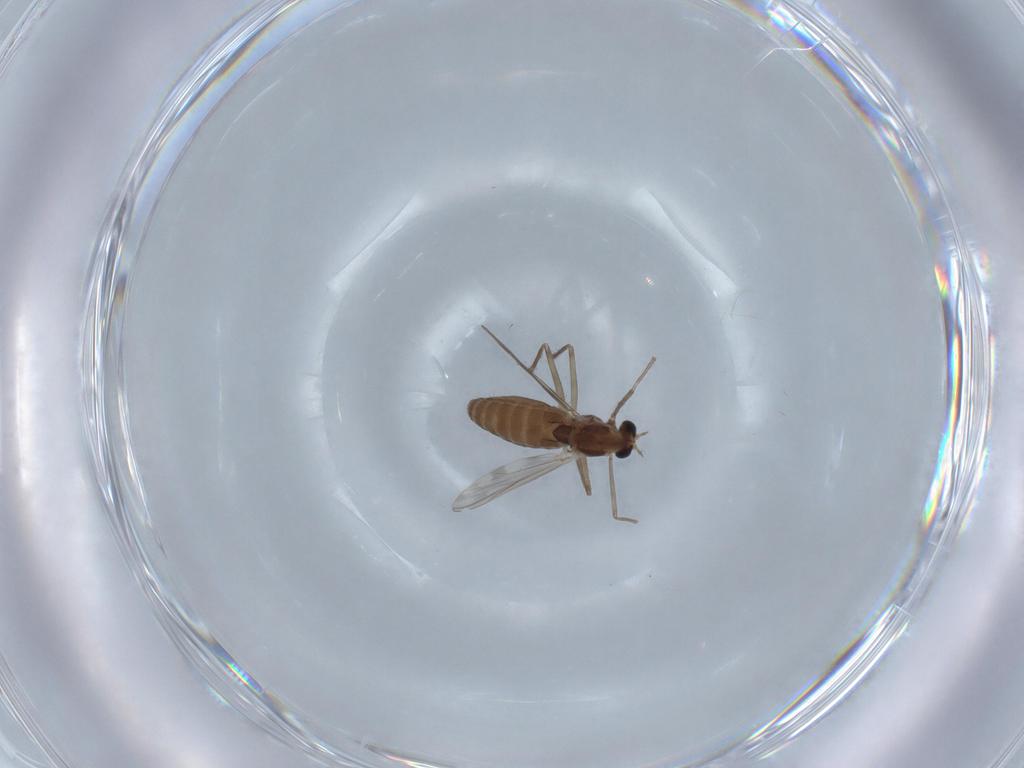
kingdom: Animalia
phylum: Arthropoda
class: Insecta
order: Diptera
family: Chironomidae
